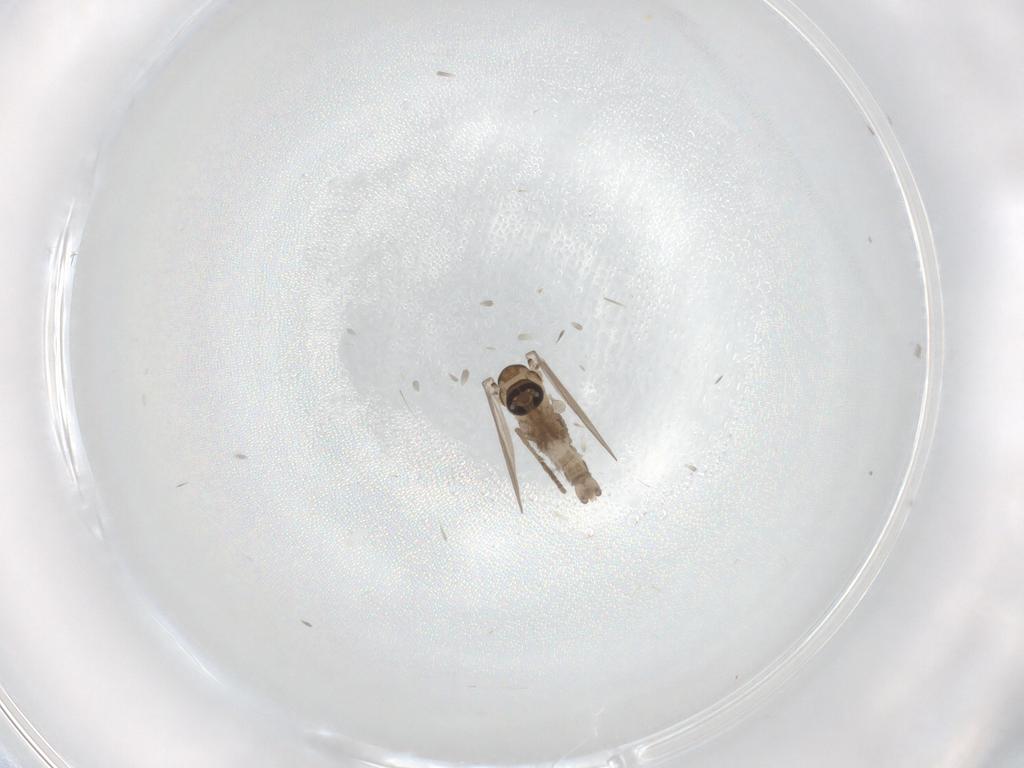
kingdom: Animalia
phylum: Arthropoda
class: Insecta
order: Diptera
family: Psychodidae
